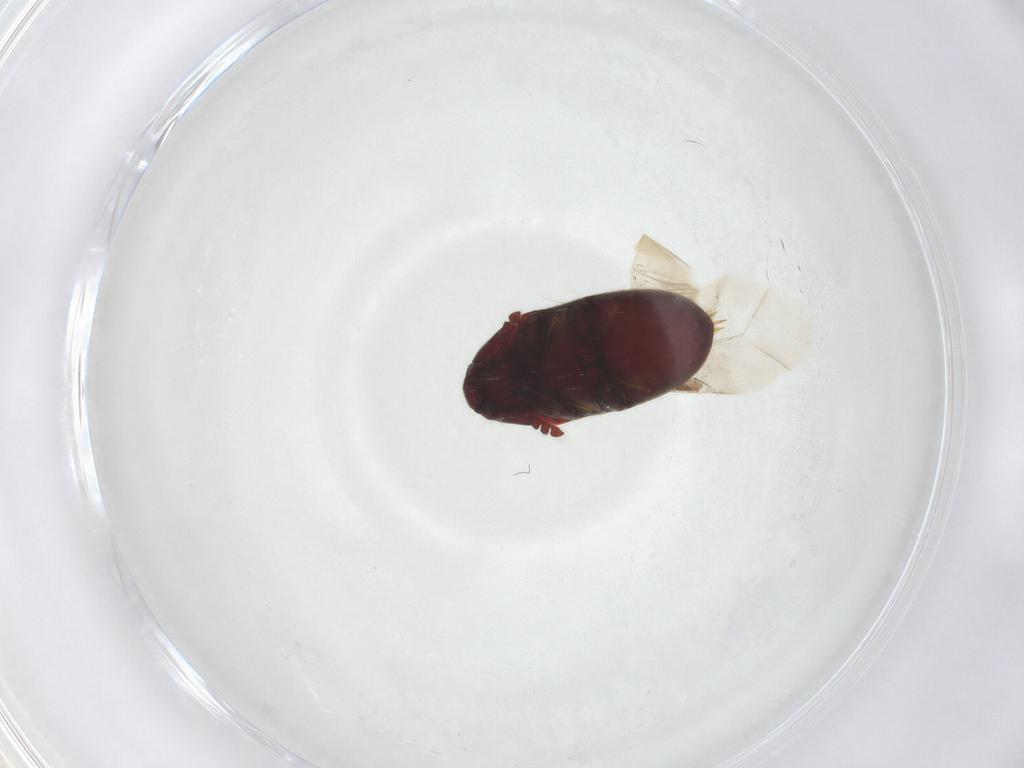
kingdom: Animalia
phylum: Arthropoda
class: Insecta
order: Coleoptera
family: Throscidae
